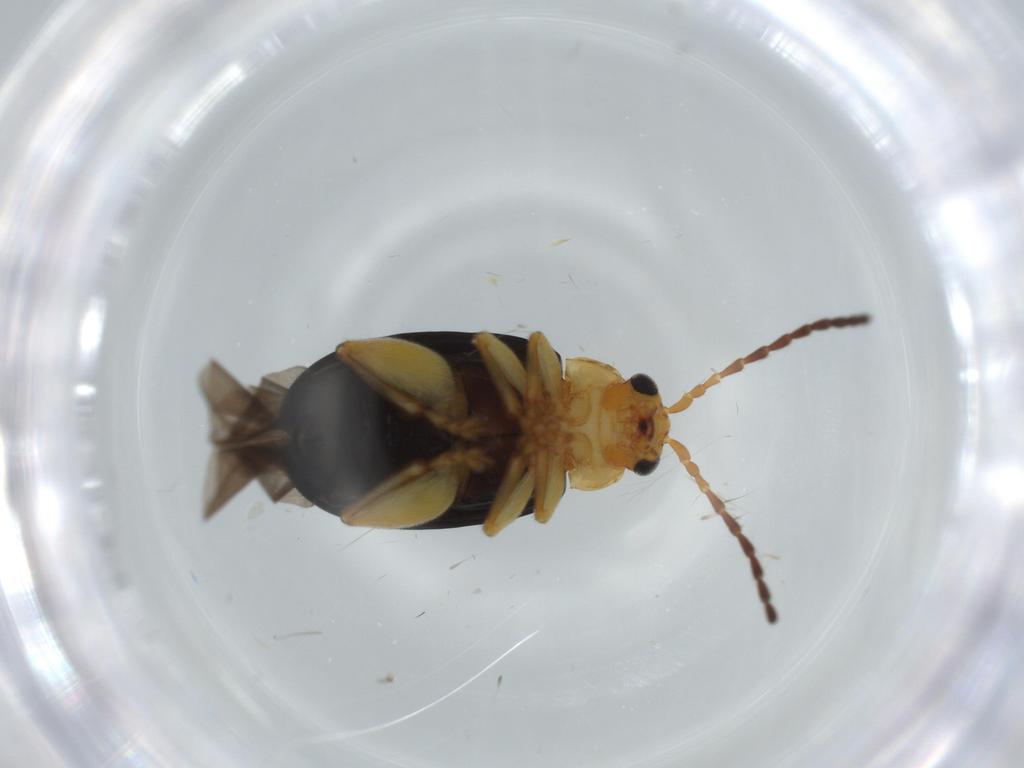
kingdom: Animalia
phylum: Arthropoda
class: Insecta
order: Coleoptera
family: Chrysomelidae
